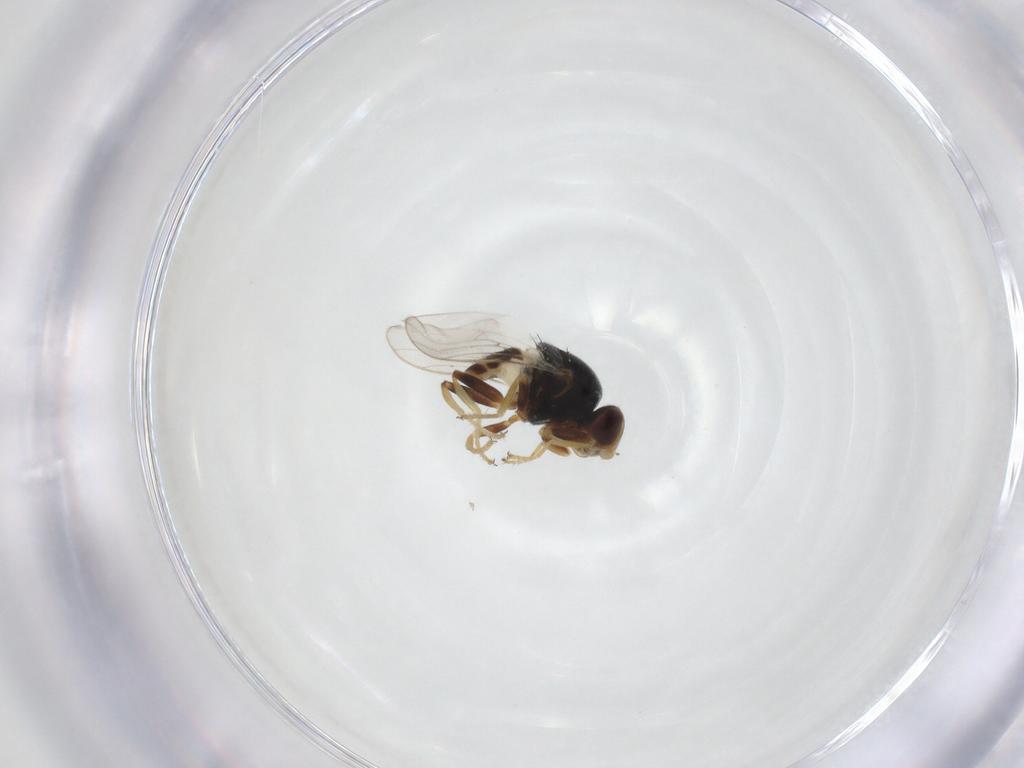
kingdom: Animalia
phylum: Arthropoda
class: Insecta
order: Diptera
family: Chloropidae
